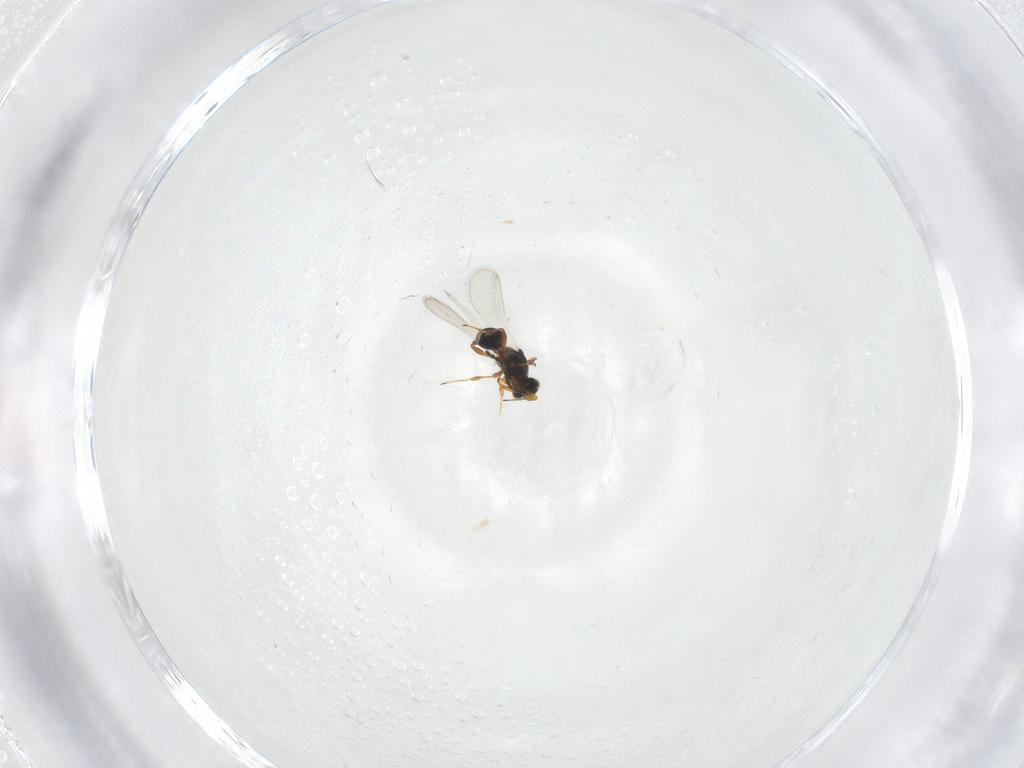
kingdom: Animalia
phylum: Arthropoda
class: Insecta
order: Hymenoptera
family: Platygastridae
